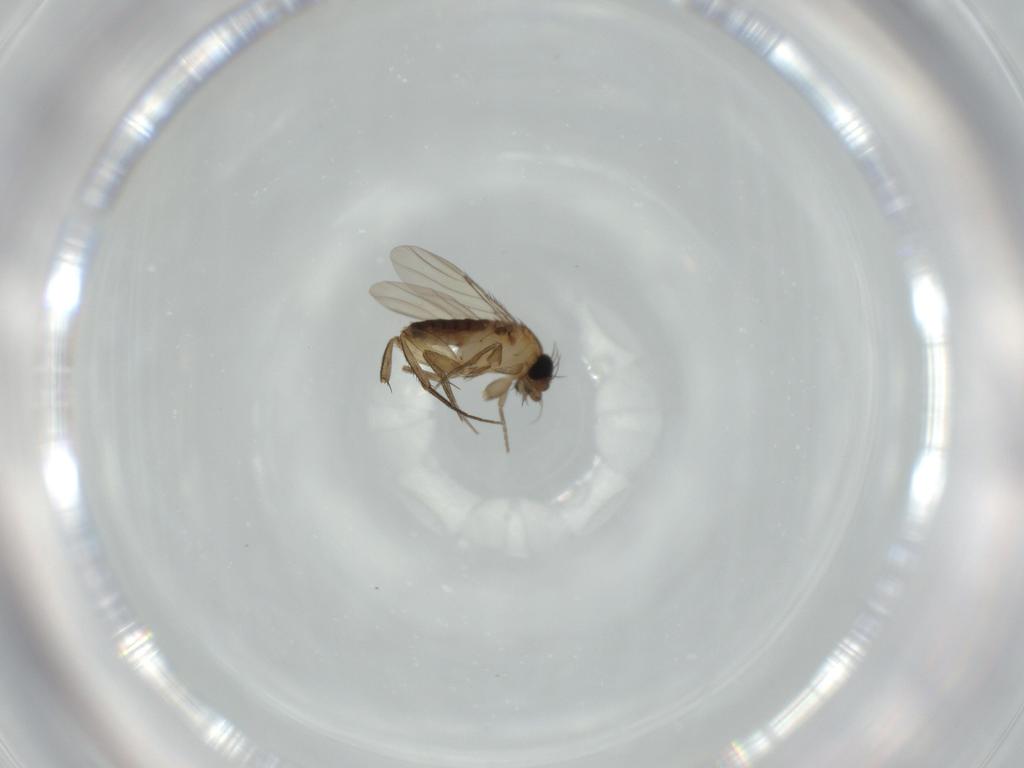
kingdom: Animalia
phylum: Arthropoda
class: Insecta
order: Diptera
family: Phoridae
